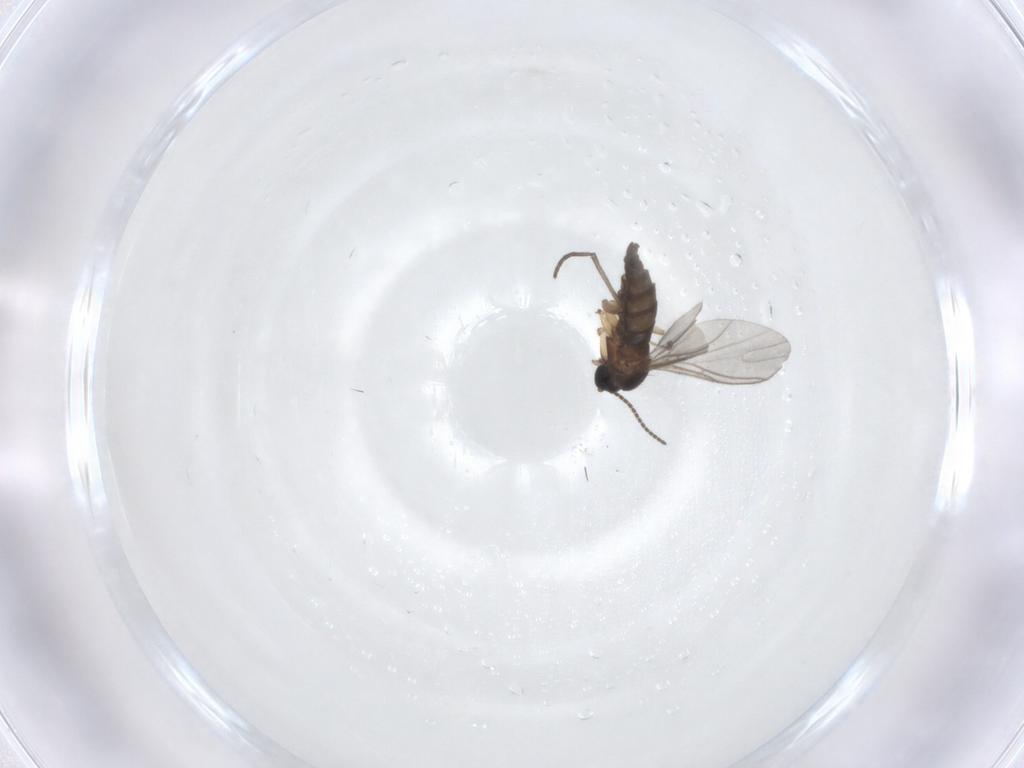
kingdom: Animalia
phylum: Arthropoda
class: Insecta
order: Diptera
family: Sciaridae
